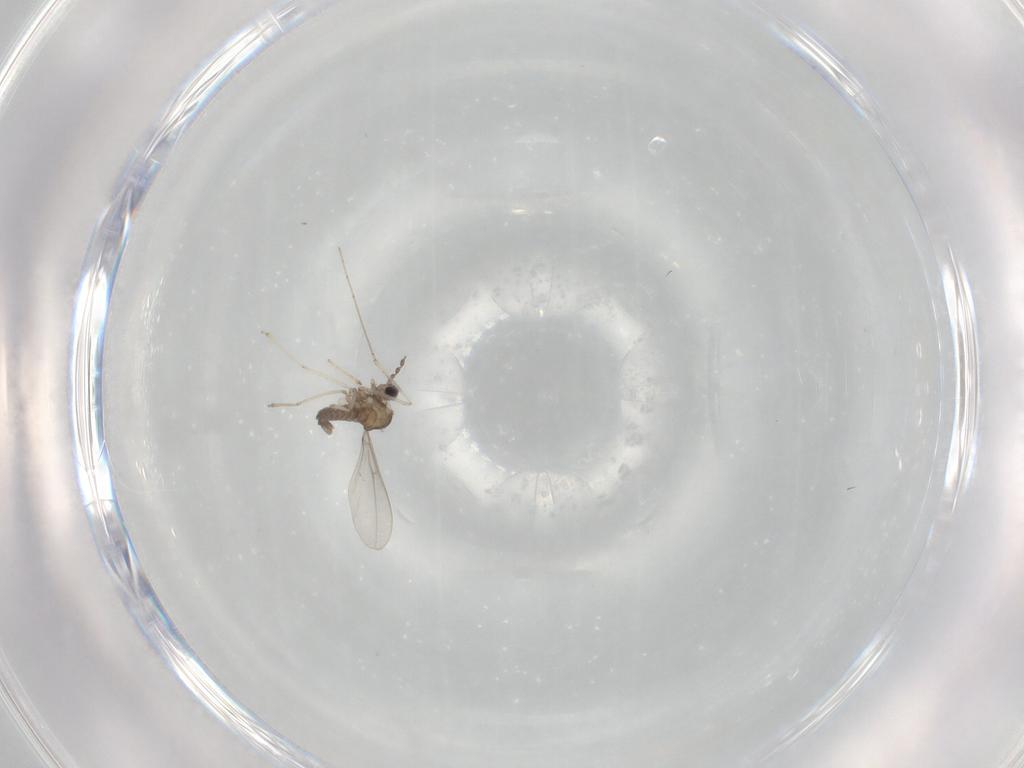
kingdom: Animalia
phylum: Arthropoda
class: Insecta
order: Diptera
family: Cecidomyiidae
